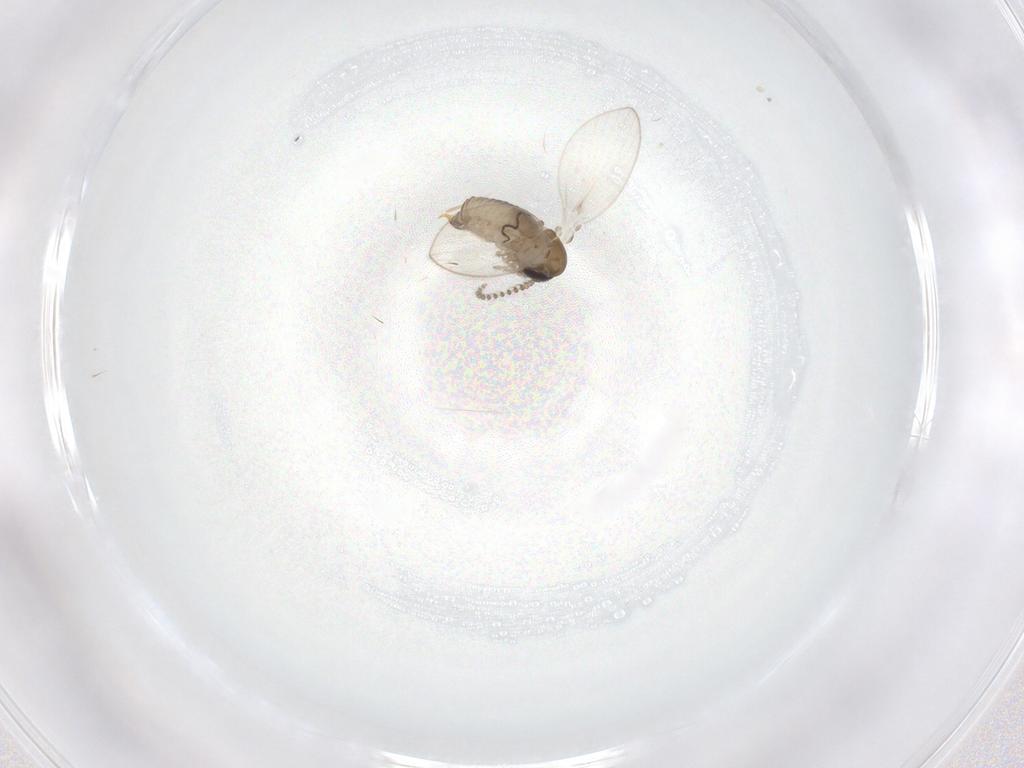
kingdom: Animalia
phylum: Arthropoda
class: Insecta
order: Diptera
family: Psychodidae
